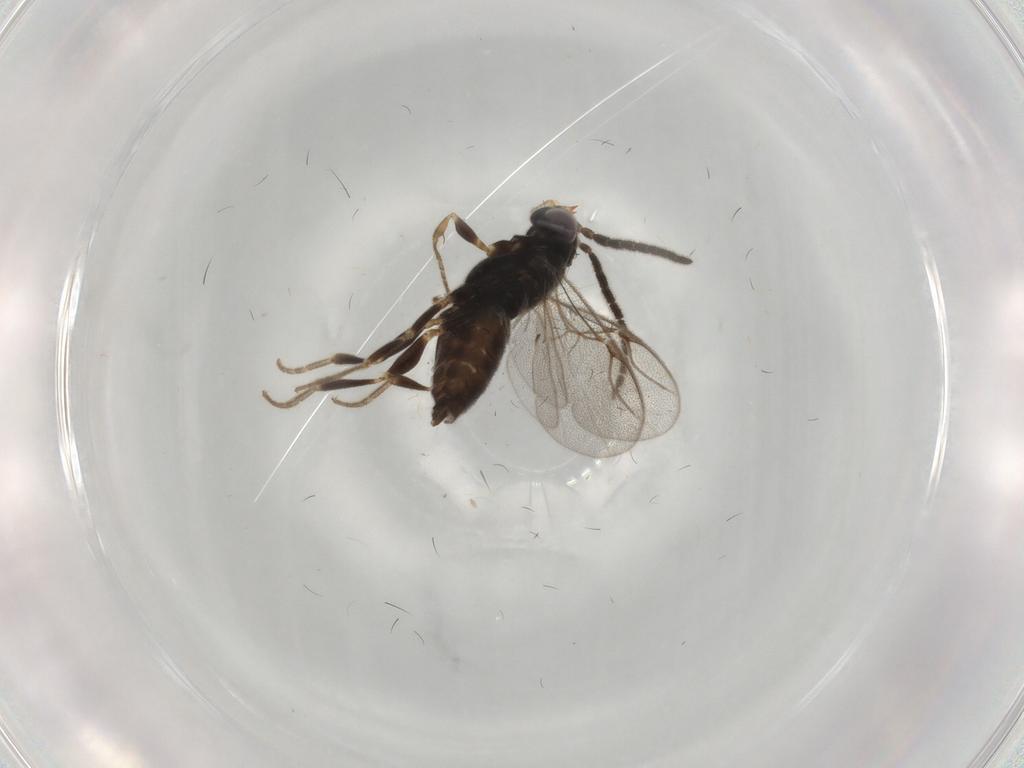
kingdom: Animalia
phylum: Arthropoda
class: Insecta
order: Hymenoptera
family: Dryinidae
